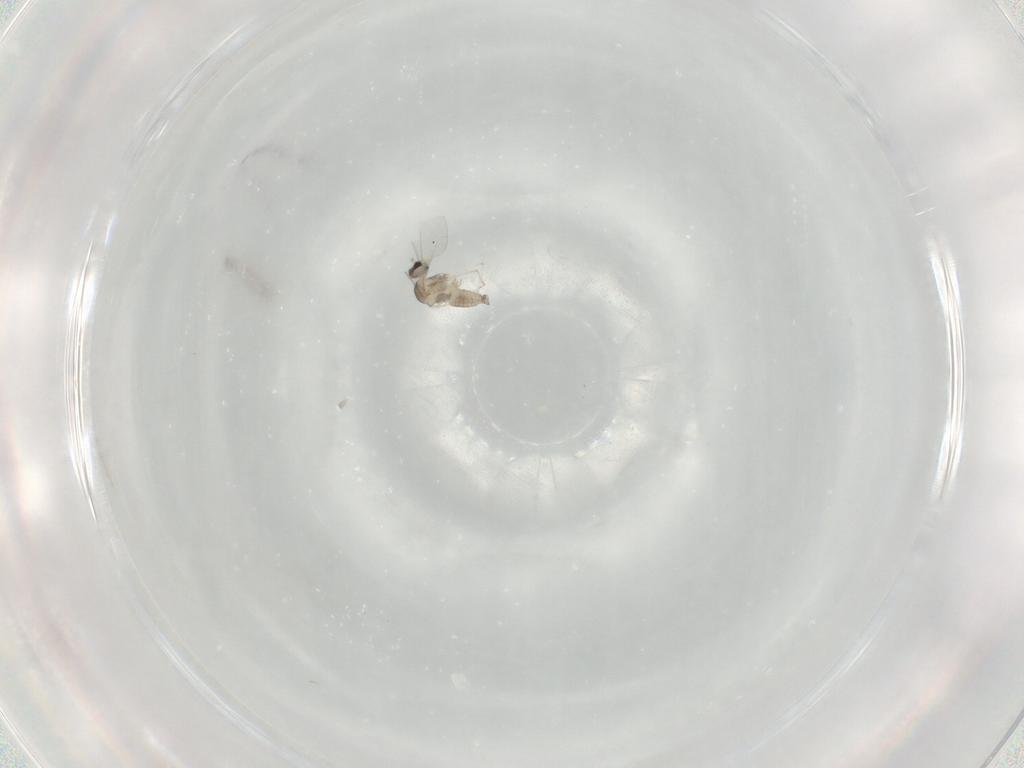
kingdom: Animalia
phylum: Arthropoda
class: Insecta
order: Diptera
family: Cecidomyiidae
